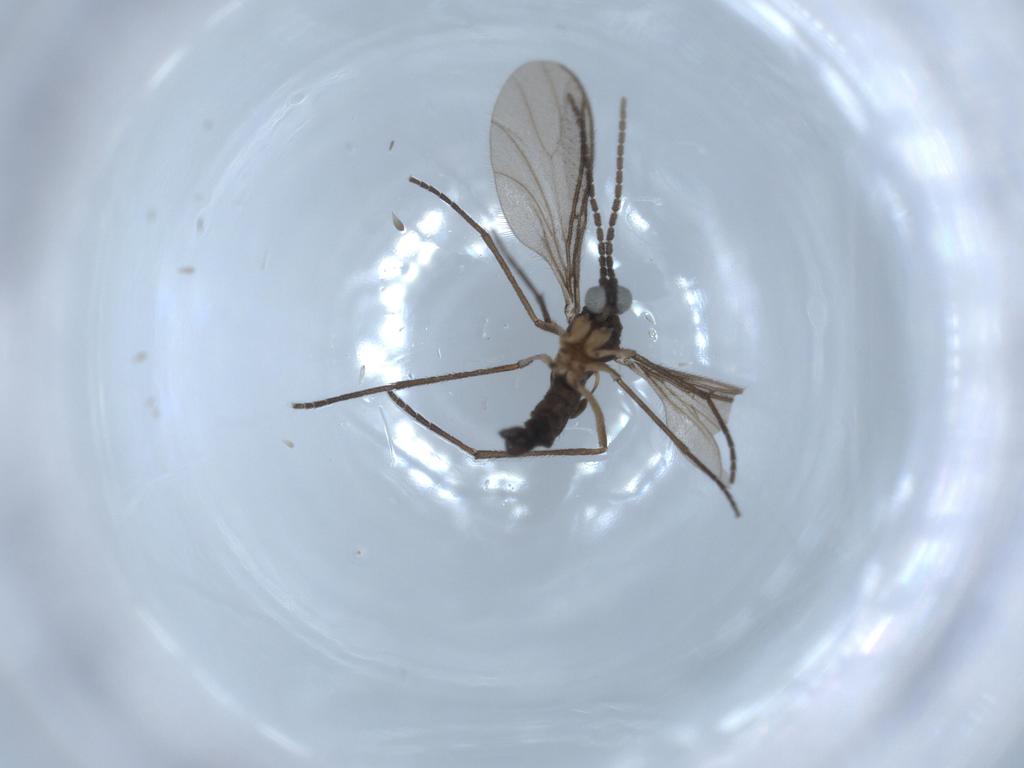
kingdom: Animalia
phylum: Arthropoda
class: Insecta
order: Diptera
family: Sciaridae
